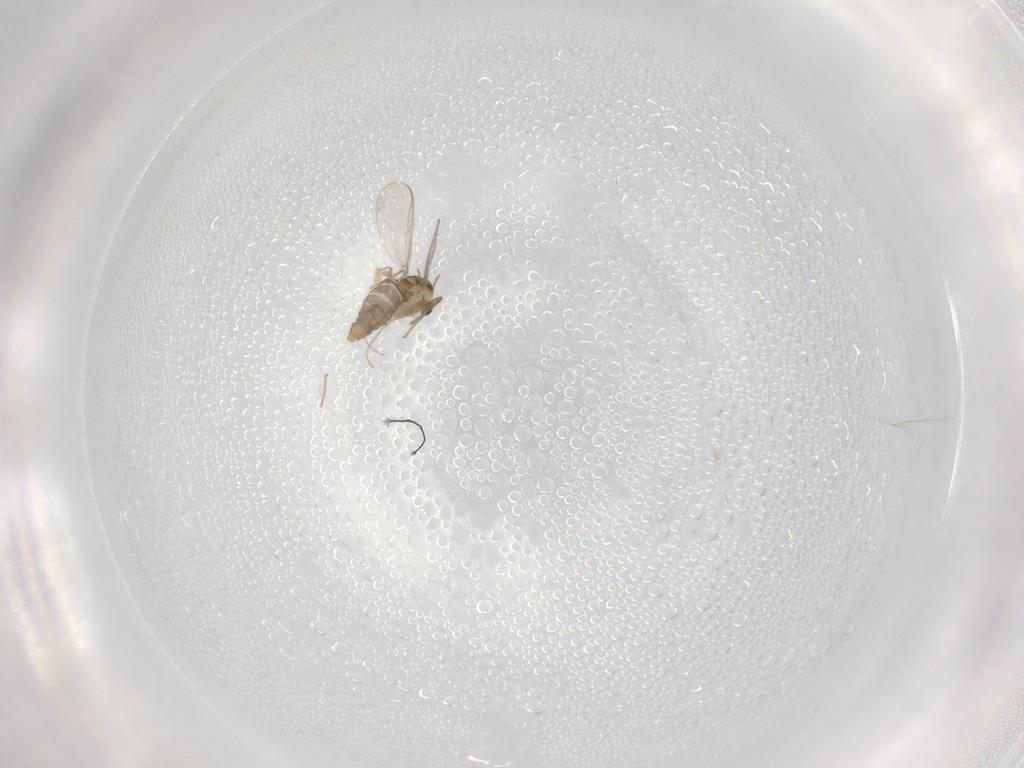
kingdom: Animalia
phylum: Arthropoda
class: Insecta
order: Diptera
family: Chironomidae
